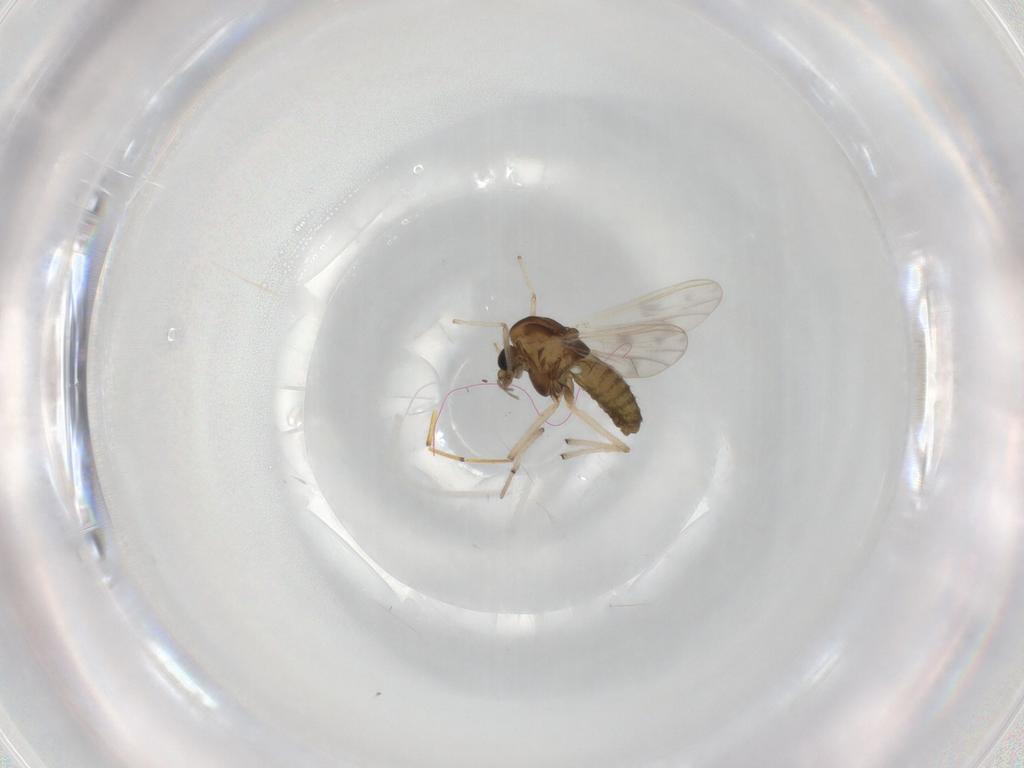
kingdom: Animalia
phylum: Arthropoda
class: Insecta
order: Diptera
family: Chironomidae
